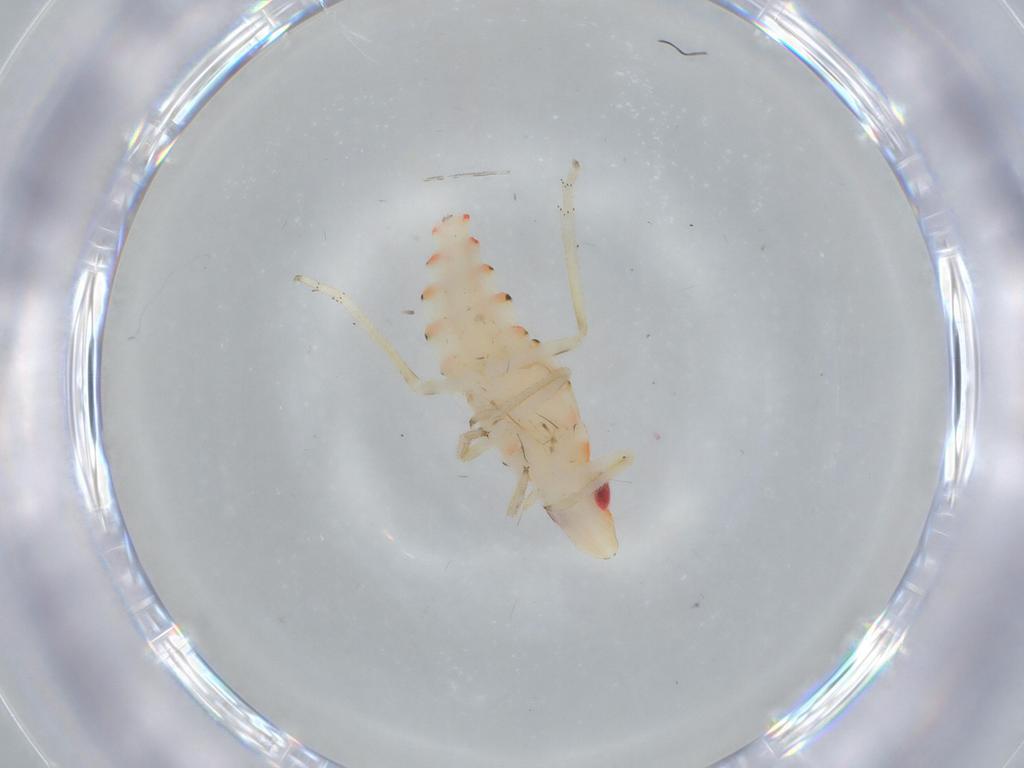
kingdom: Animalia
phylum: Arthropoda
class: Insecta
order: Hemiptera
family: Tropiduchidae
